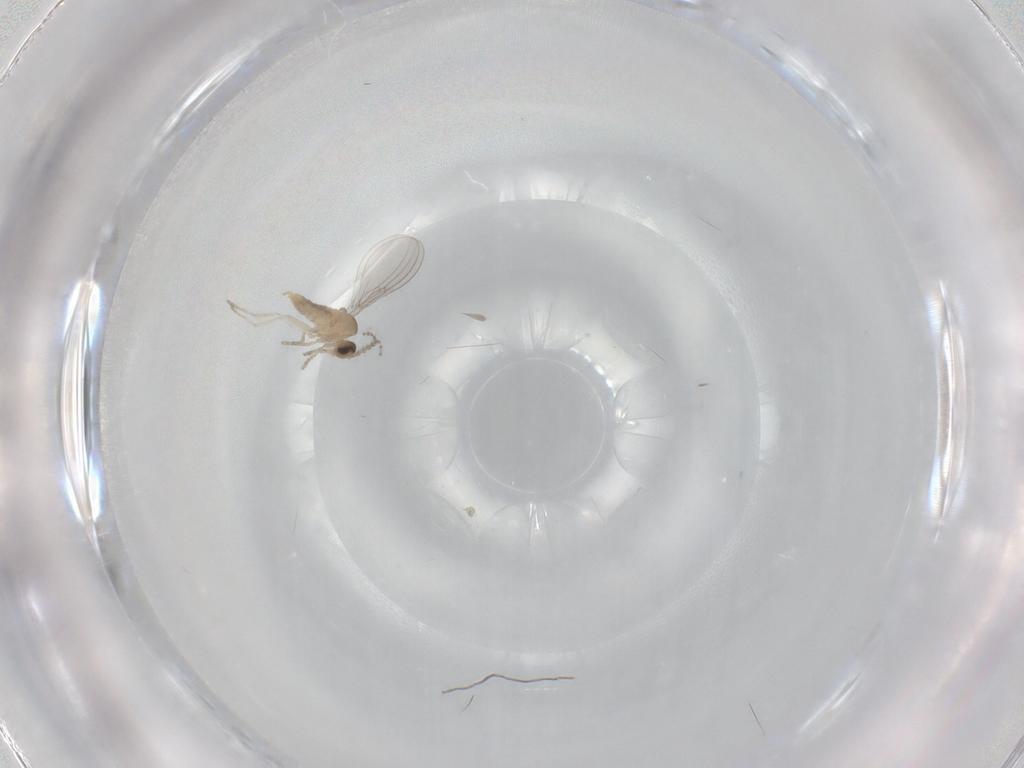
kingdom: Animalia
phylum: Arthropoda
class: Insecta
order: Diptera
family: Cecidomyiidae
